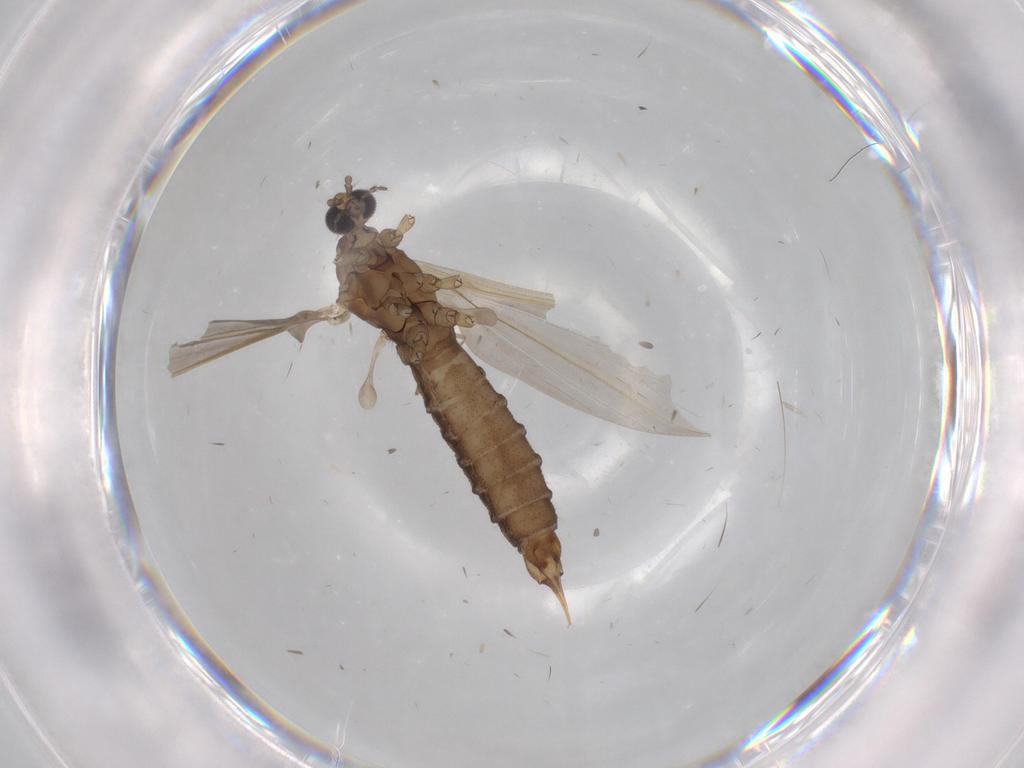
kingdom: Animalia
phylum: Arthropoda
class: Insecta
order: Diptera
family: Limoniidae
